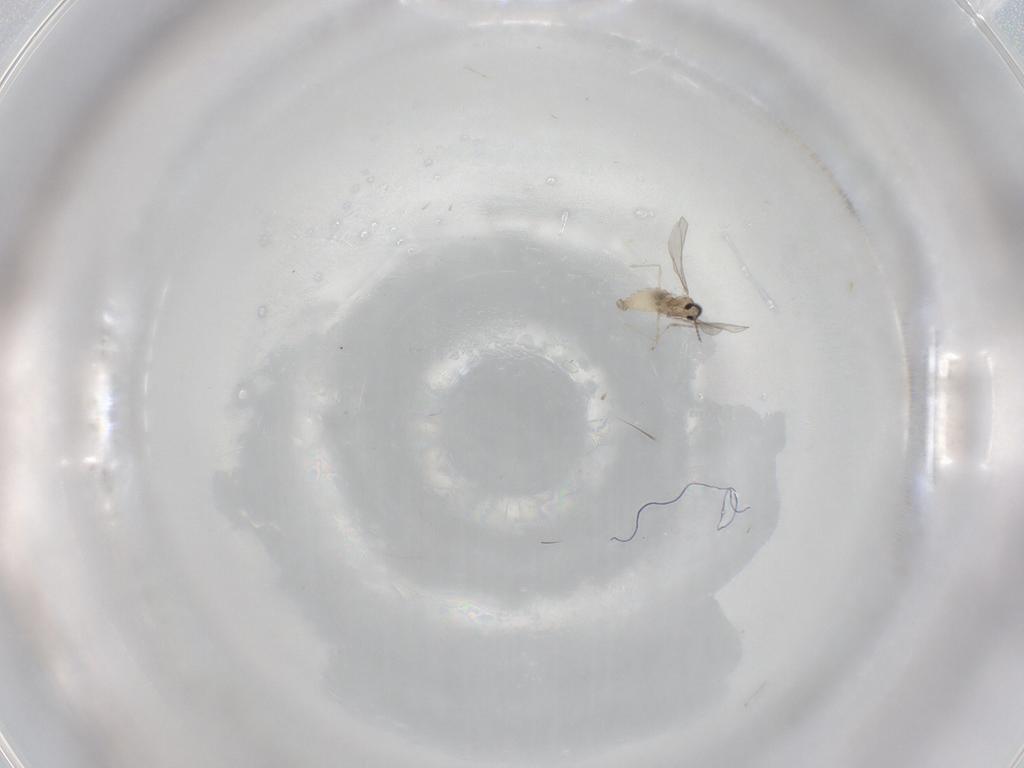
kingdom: Animalia
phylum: Arthropoda
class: Insecta
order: Diptera
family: Cecidomyiidae
